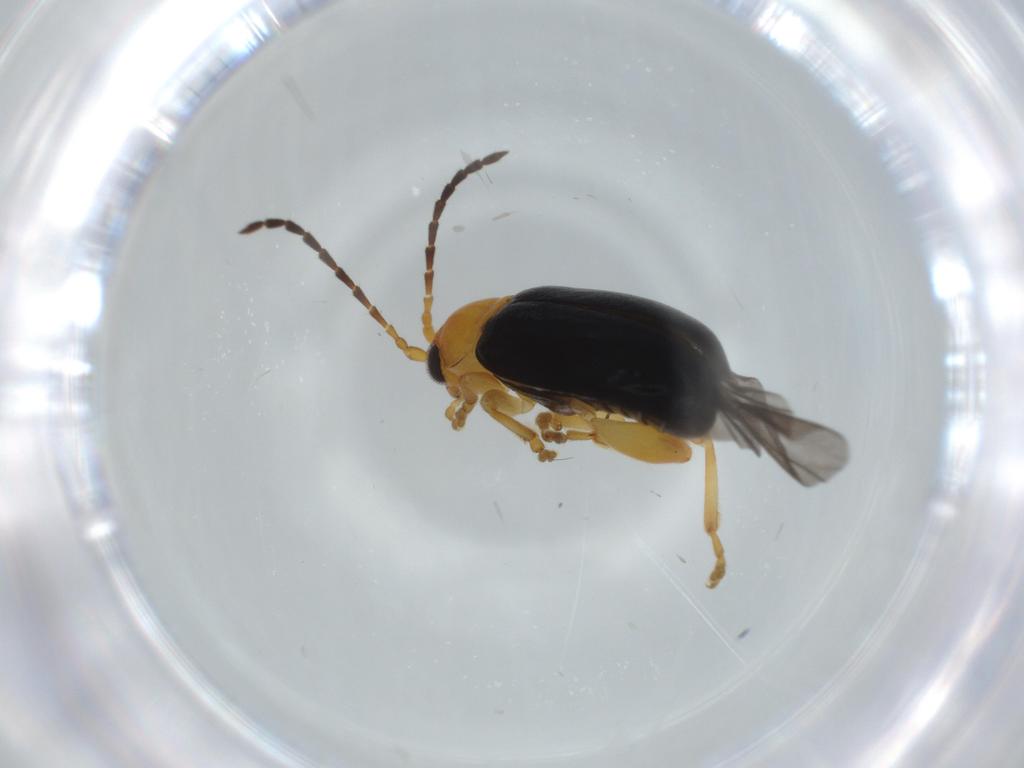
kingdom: Animalia
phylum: Arthropoda
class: Insecta
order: Coleoptera
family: Chrysomelidae
